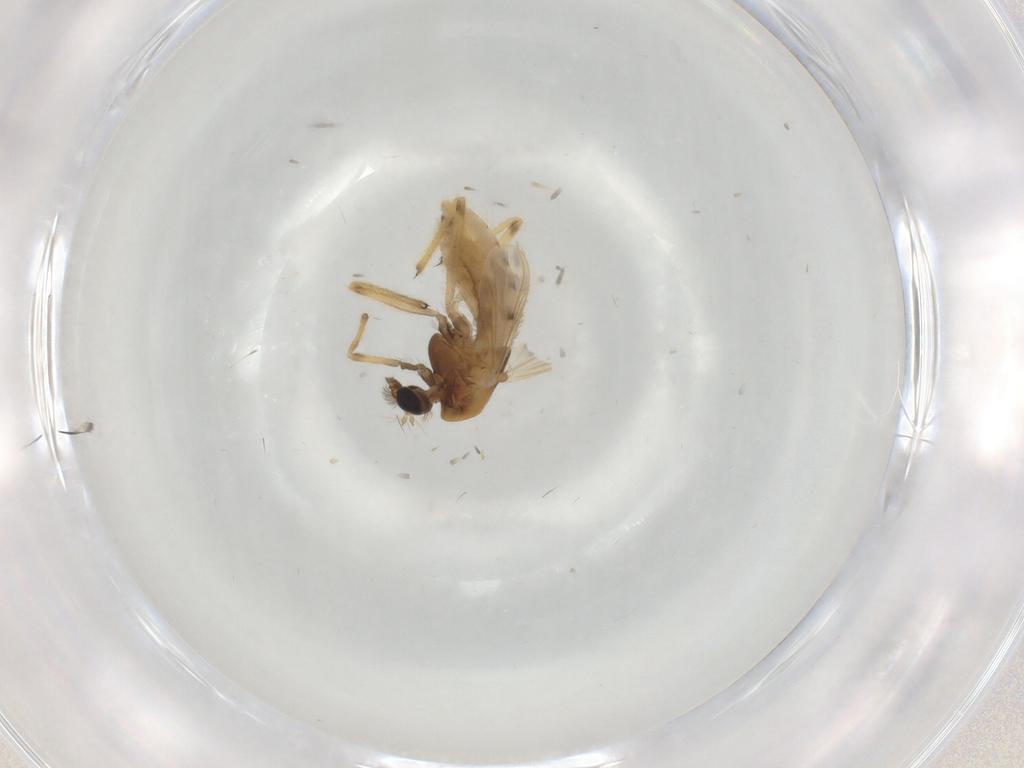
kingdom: Animalia
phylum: Arthropoda
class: Insecta
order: Diptera
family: Chironomidae
